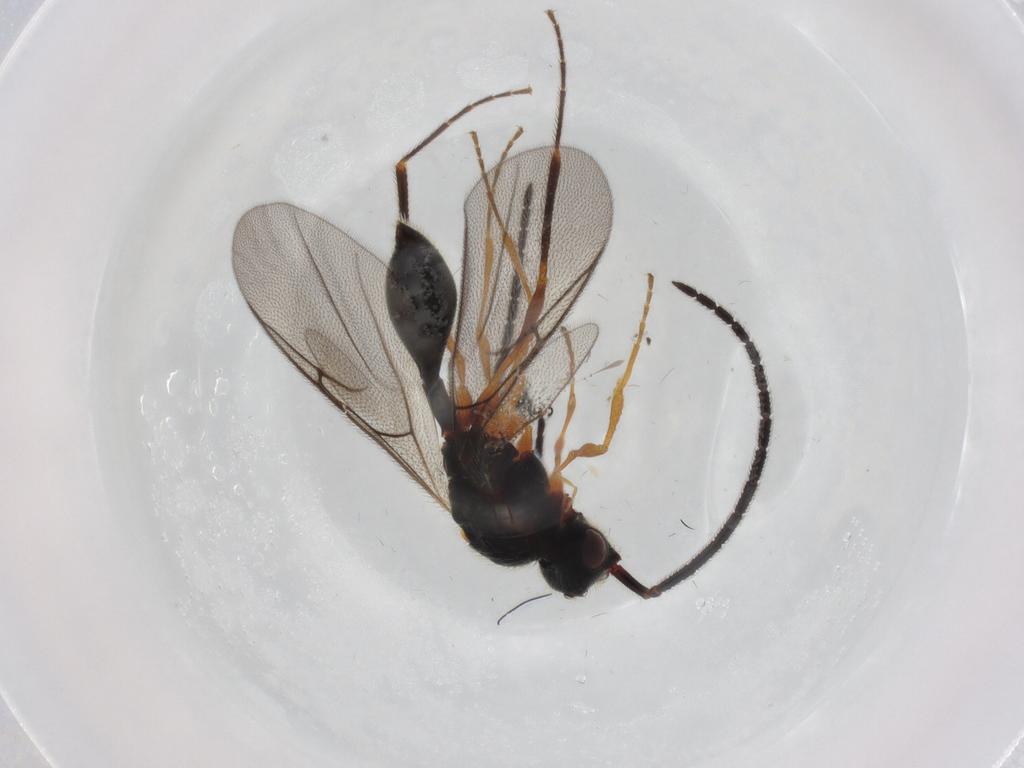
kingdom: Animalia
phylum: Arthropoda
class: Insecta
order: Hymenoptera
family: Diapriidae
